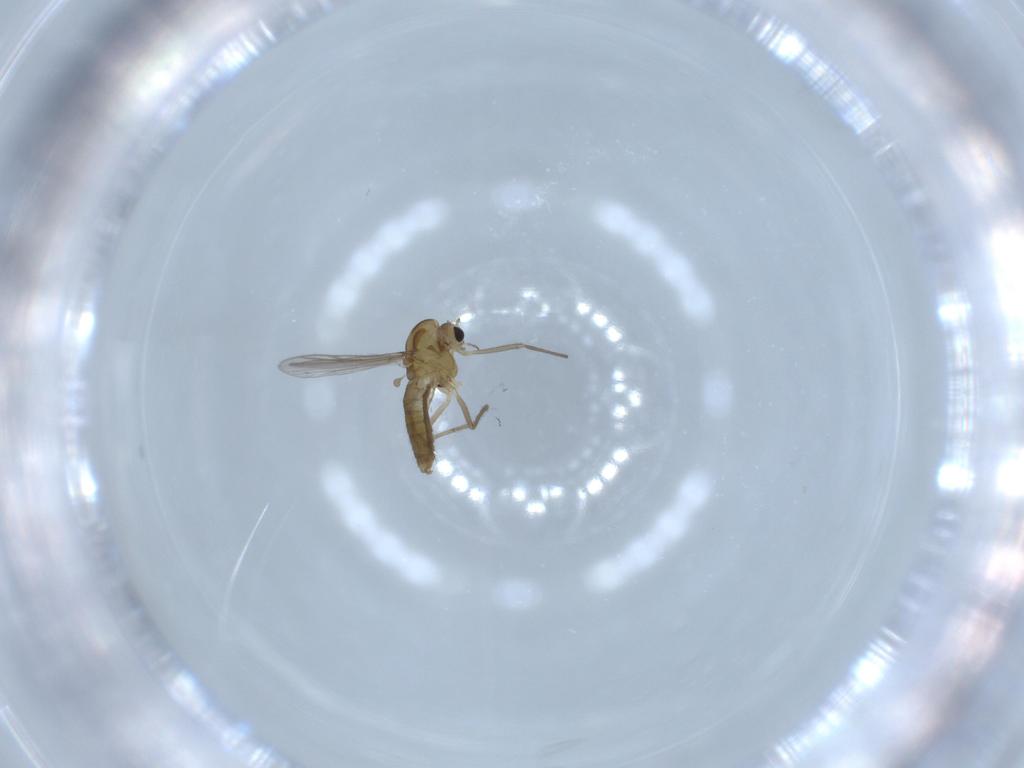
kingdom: Animalia
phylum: Arthropoda
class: Insecta
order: Diptera
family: Chironomidae
